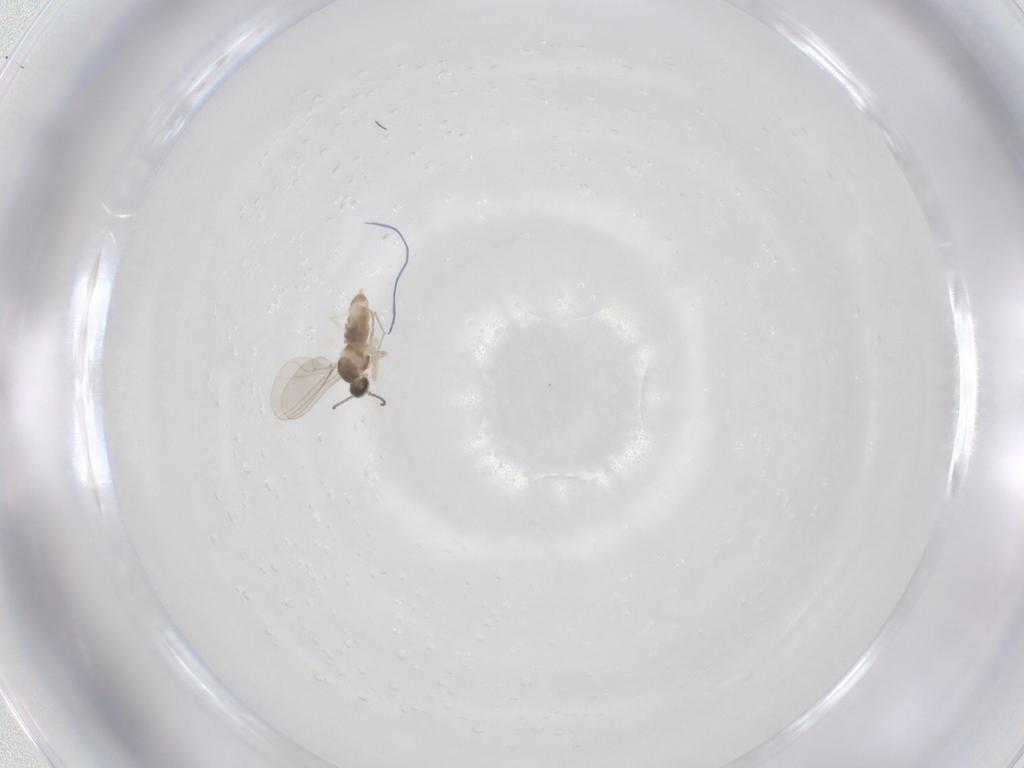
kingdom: Animalia
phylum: Arthropoda
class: Insecta
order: Diptera
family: Cecidomyiidae
